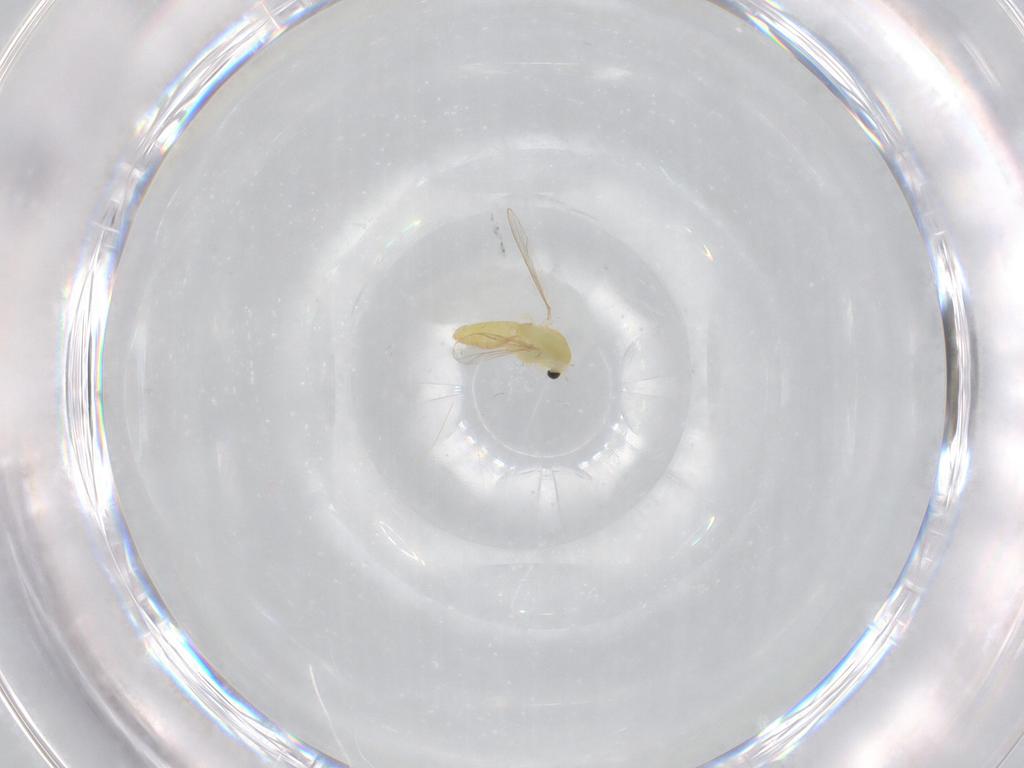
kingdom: Animalia
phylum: Arthropoda
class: Insecta
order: Diptera
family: Chironomidae
